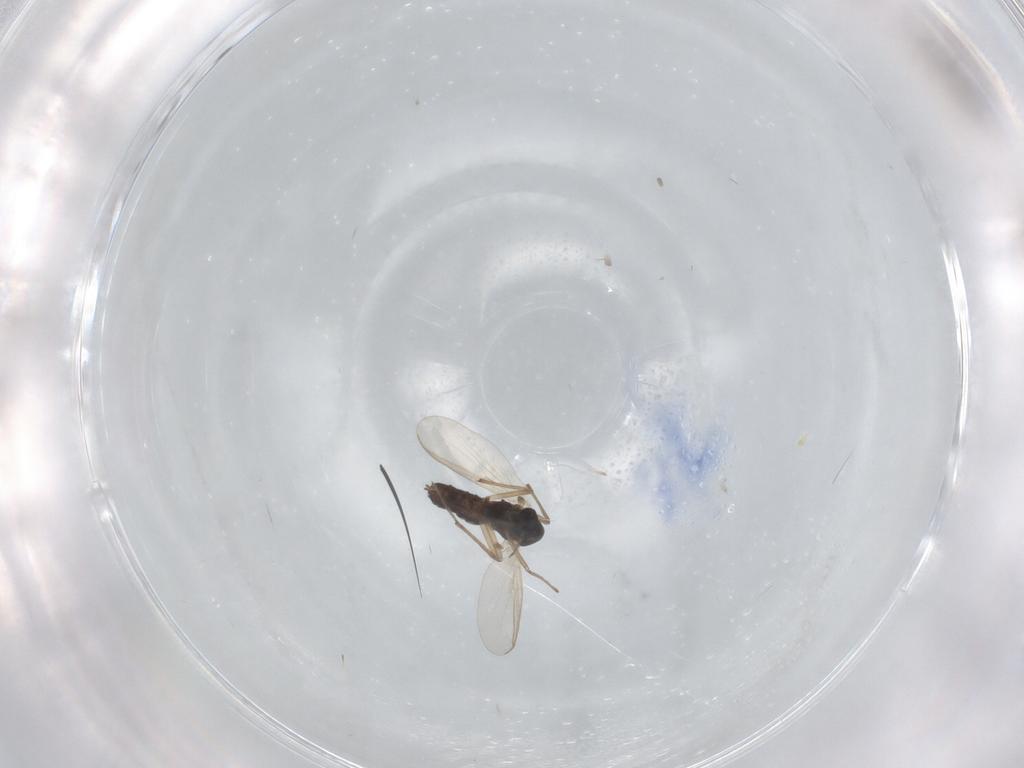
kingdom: Animalia
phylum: Arthropoda
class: Insecta
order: Diptera
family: Chironomidae
